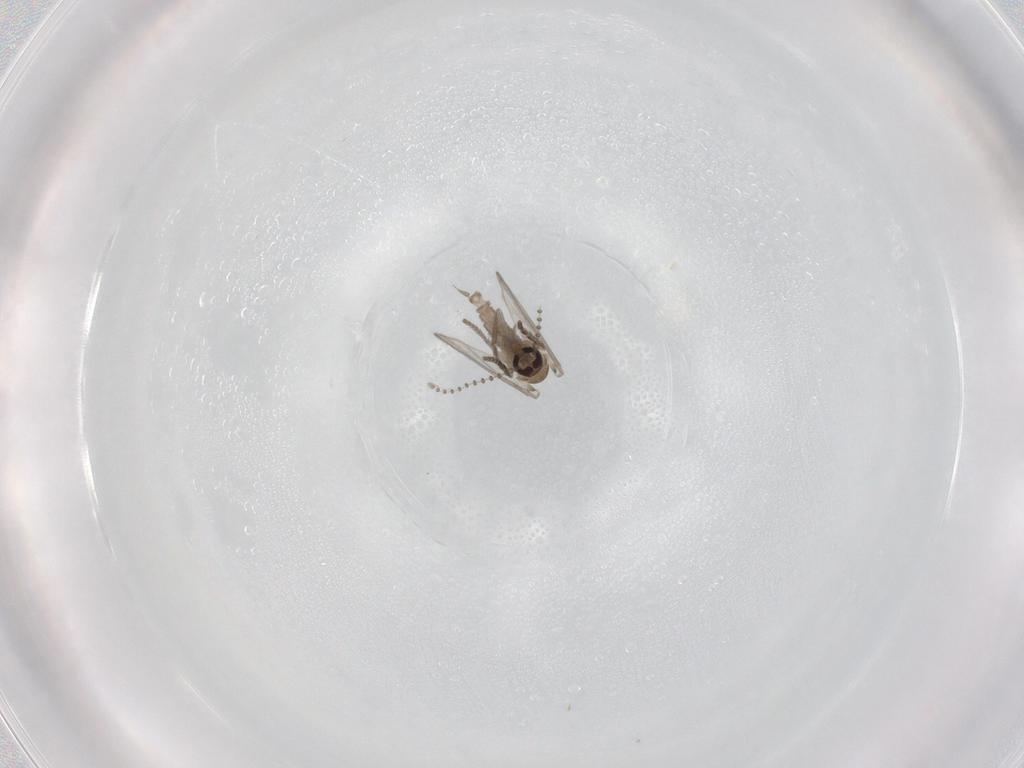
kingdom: Animalia
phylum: Arthropoda
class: Insecta
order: Diptera
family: Psychodidae
